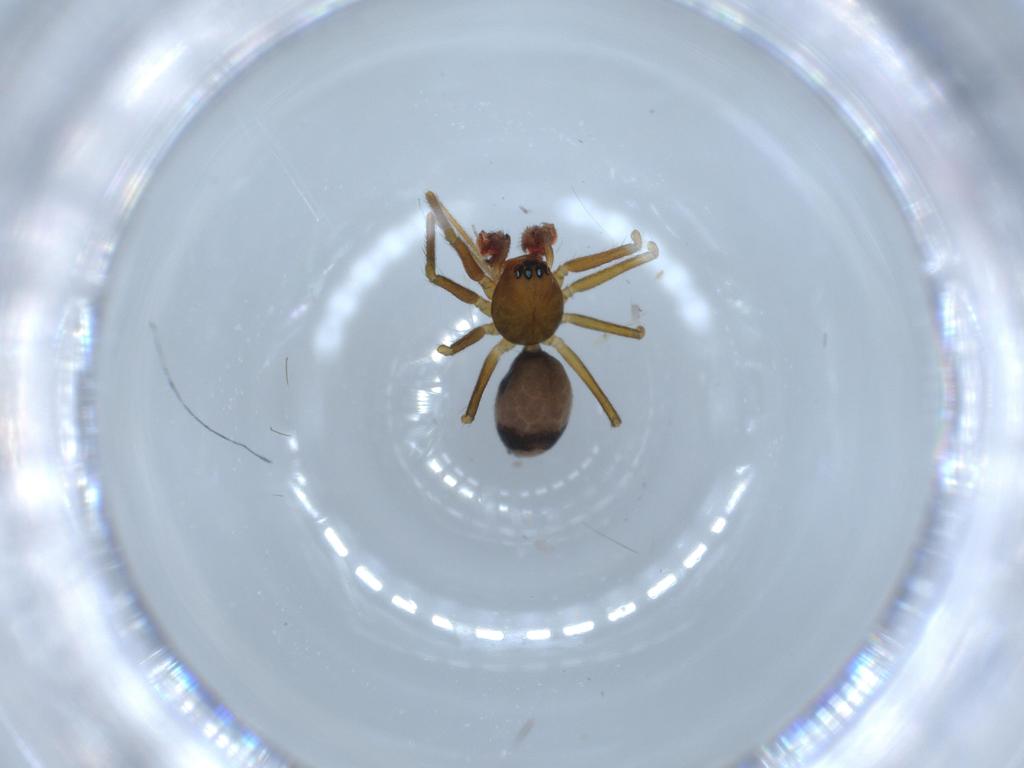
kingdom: Animalia
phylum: Arthropoda
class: Arachnida
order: Araneae
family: Linyphiidae
